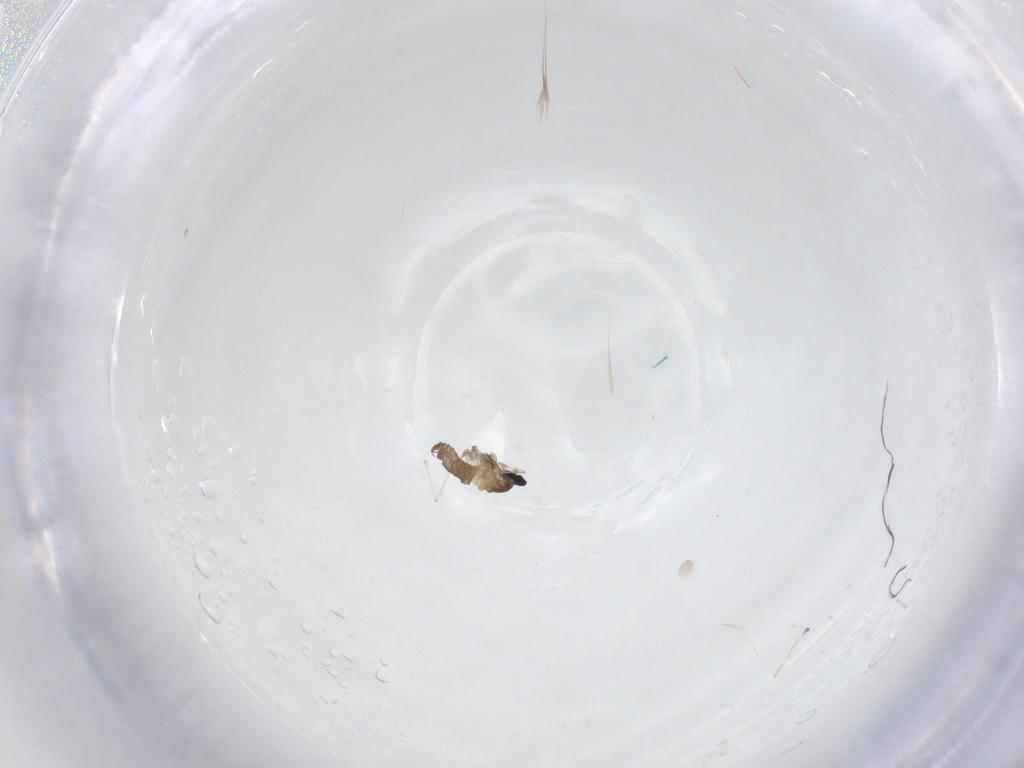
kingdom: Animalia
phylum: Arthropoda
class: Insecta
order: Diptera
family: Cecidomyiidae
